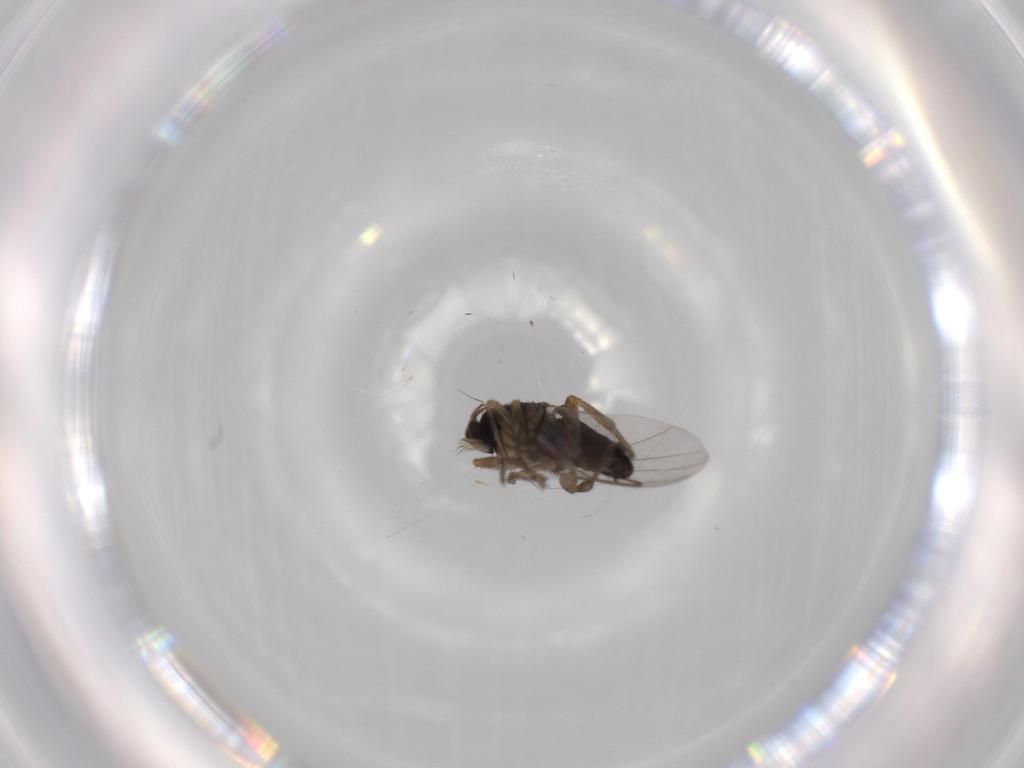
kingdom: Animalia
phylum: Arthropoda
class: Insecta
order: Diptera
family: Phoridae
